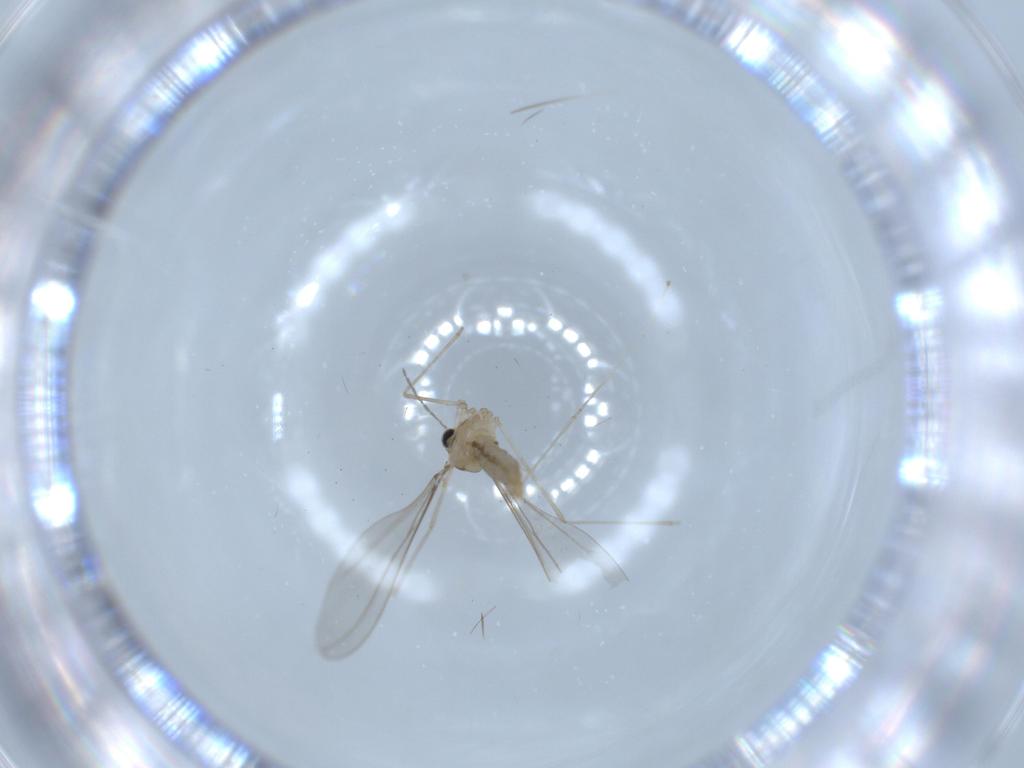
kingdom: Animalia
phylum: Arthropoda
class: Insecta
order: Diptera
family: Cecidomyiidae
